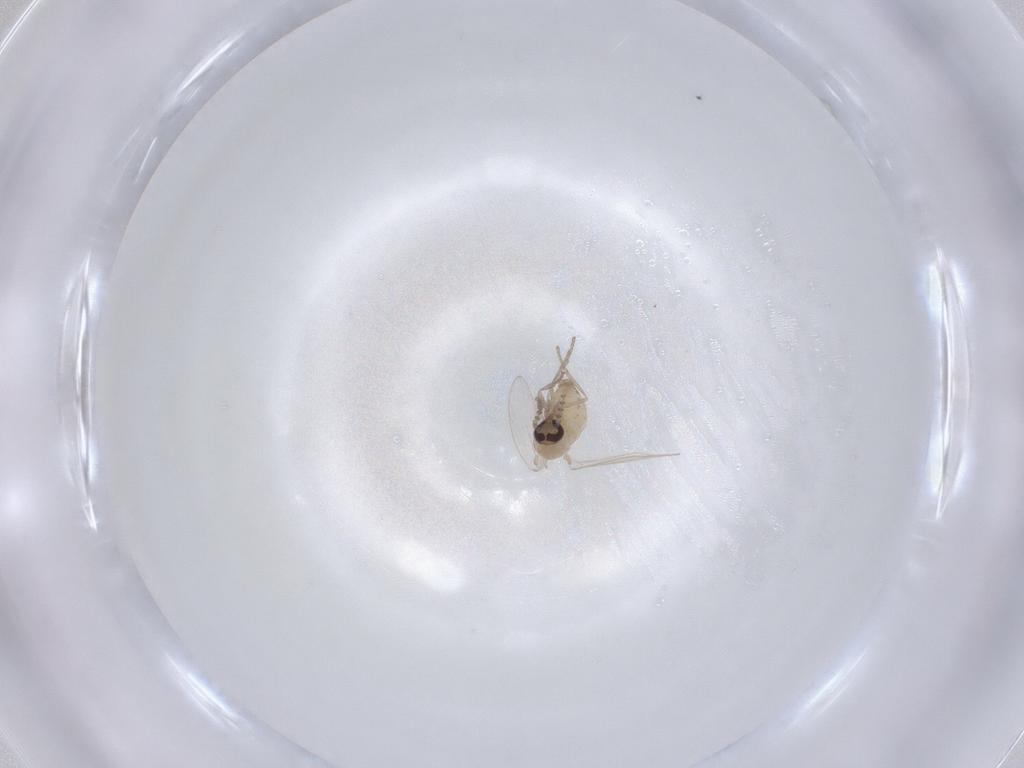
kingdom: Animalia
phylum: Arthropoda
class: Insecta
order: Diptera
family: Psychodidae
